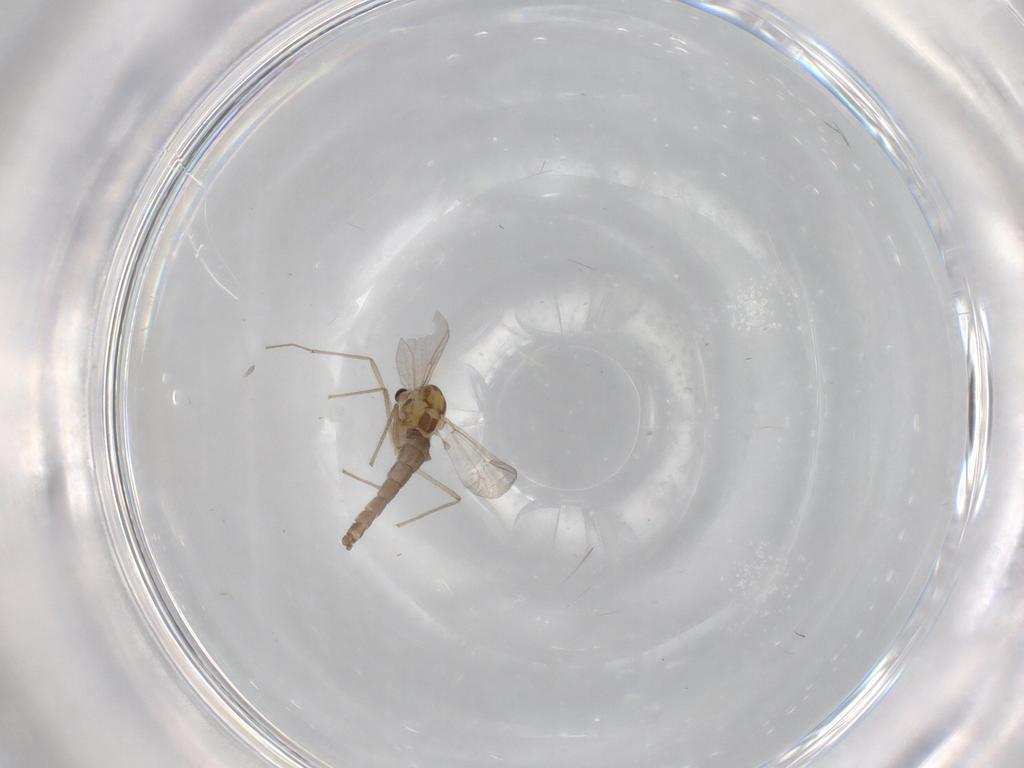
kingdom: Animalia
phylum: Arthropoda
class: Insecta
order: Diptera
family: Chironomidae
